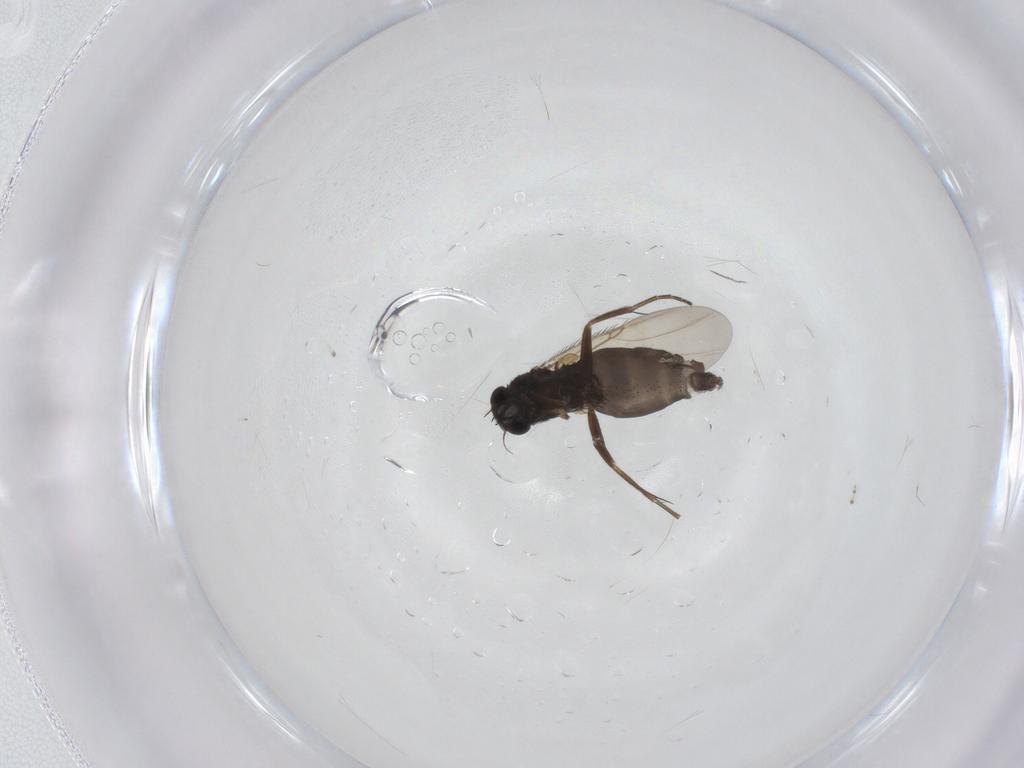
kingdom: Animalia
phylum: Arthropoda
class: Insecta
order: Diptera
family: Phoridae
